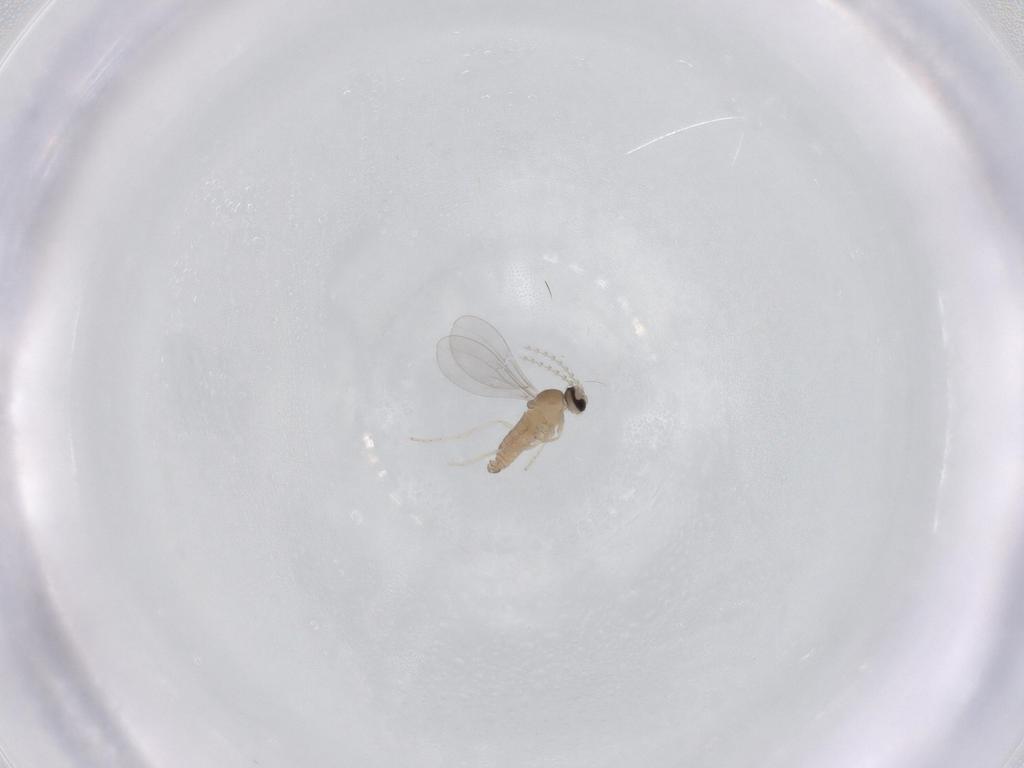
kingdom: Animalia
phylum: Arthropoda
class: Insecta
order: Diptera
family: Cecidomyiidae
